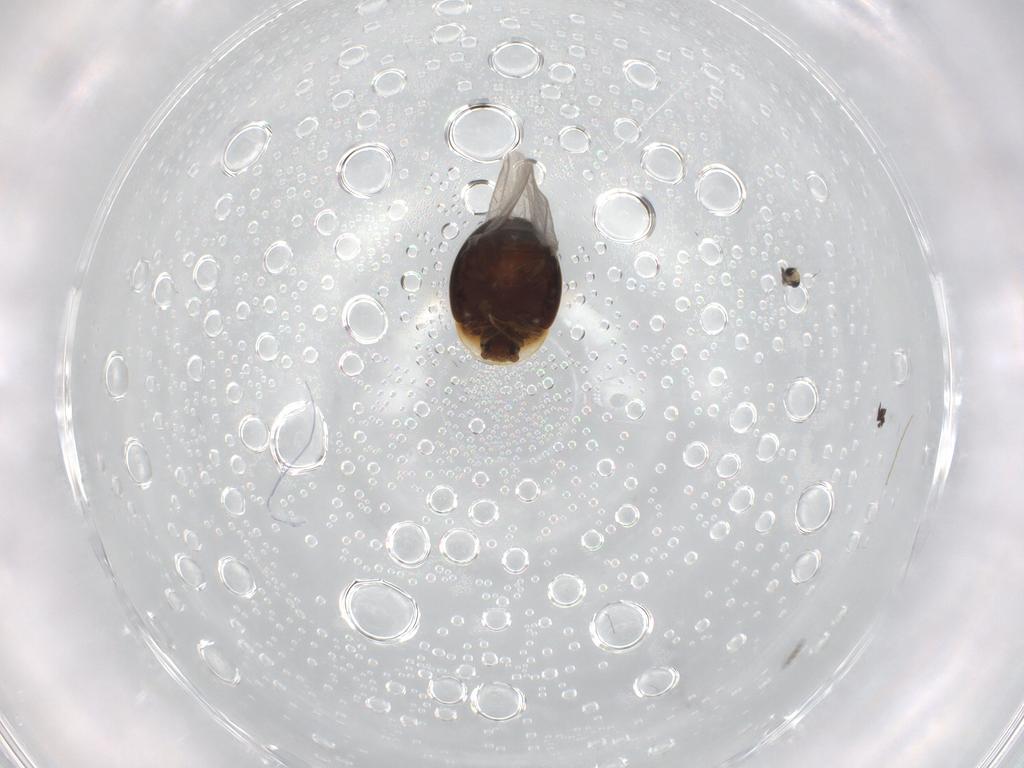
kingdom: Animalia
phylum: Arthropoda
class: Insecta
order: Coleoptera
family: Corylophidae
